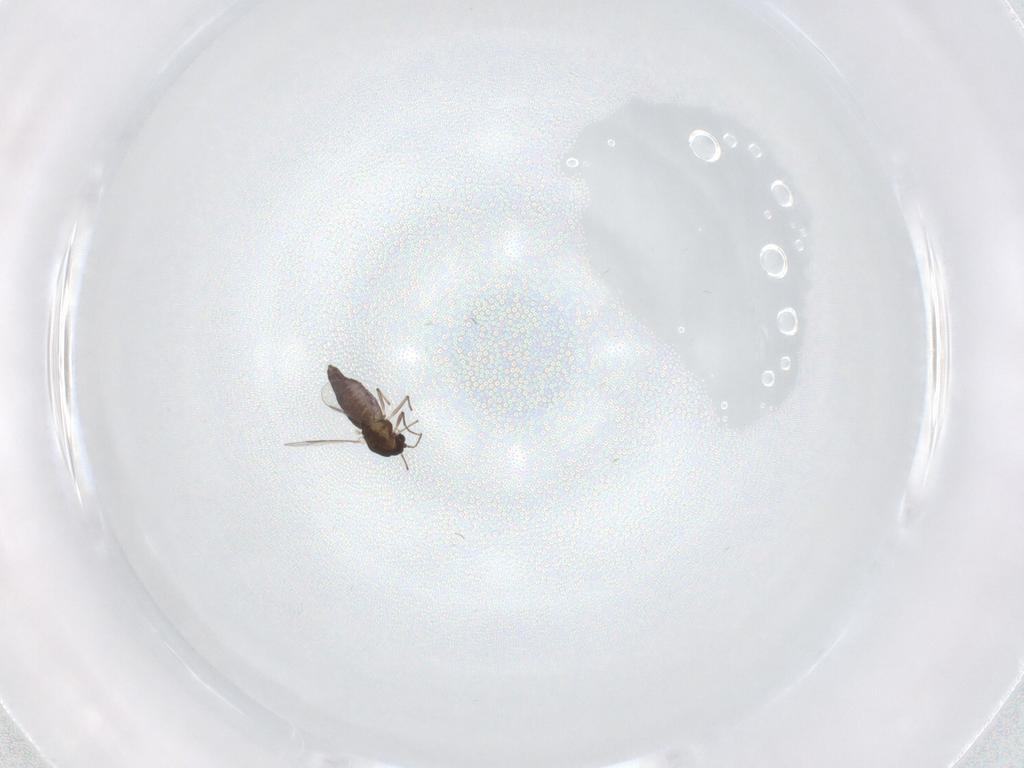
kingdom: Animalia
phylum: Arthropoda
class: Insecta
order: Diptera
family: Chironomidae
